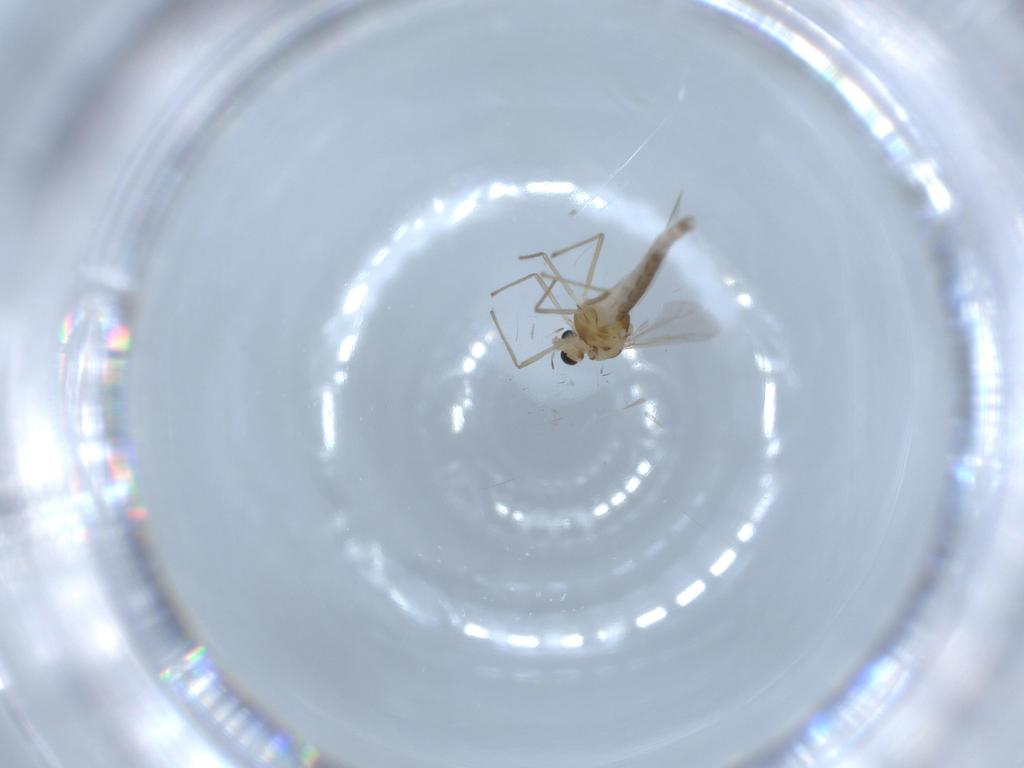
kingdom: Animalia
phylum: Arthropoda
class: Insecta
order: Diptera
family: Chironomidae
